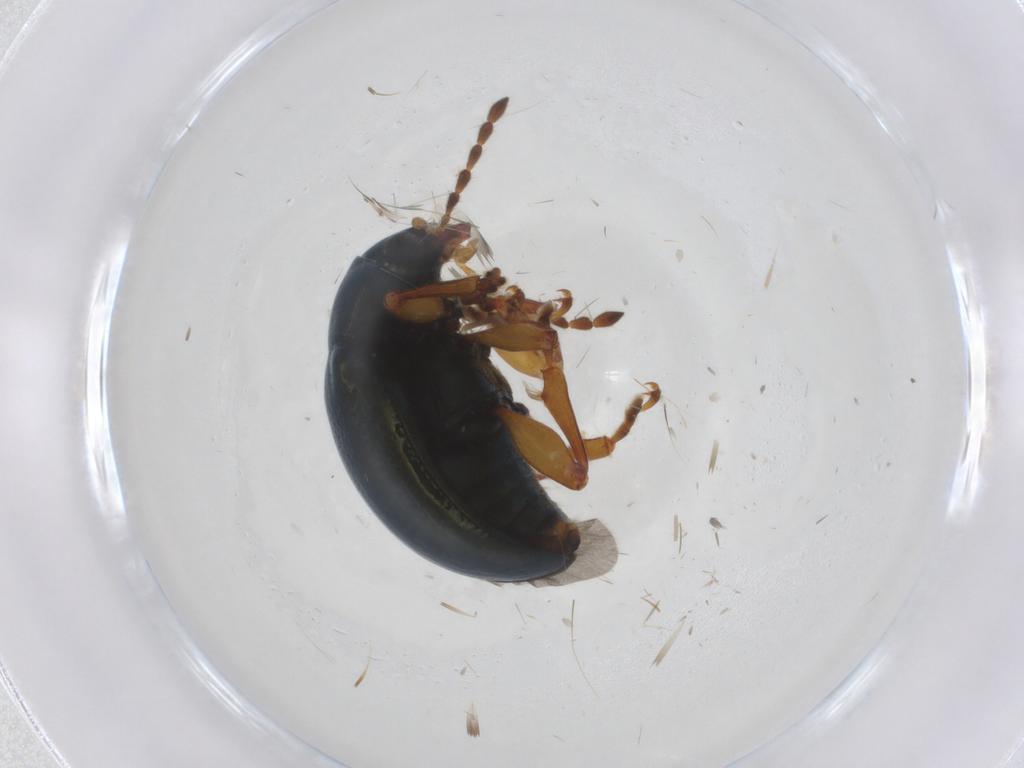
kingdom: Animalia
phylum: Arthropoda
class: Insecta
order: Coleoptera
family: Chrysomelidae
